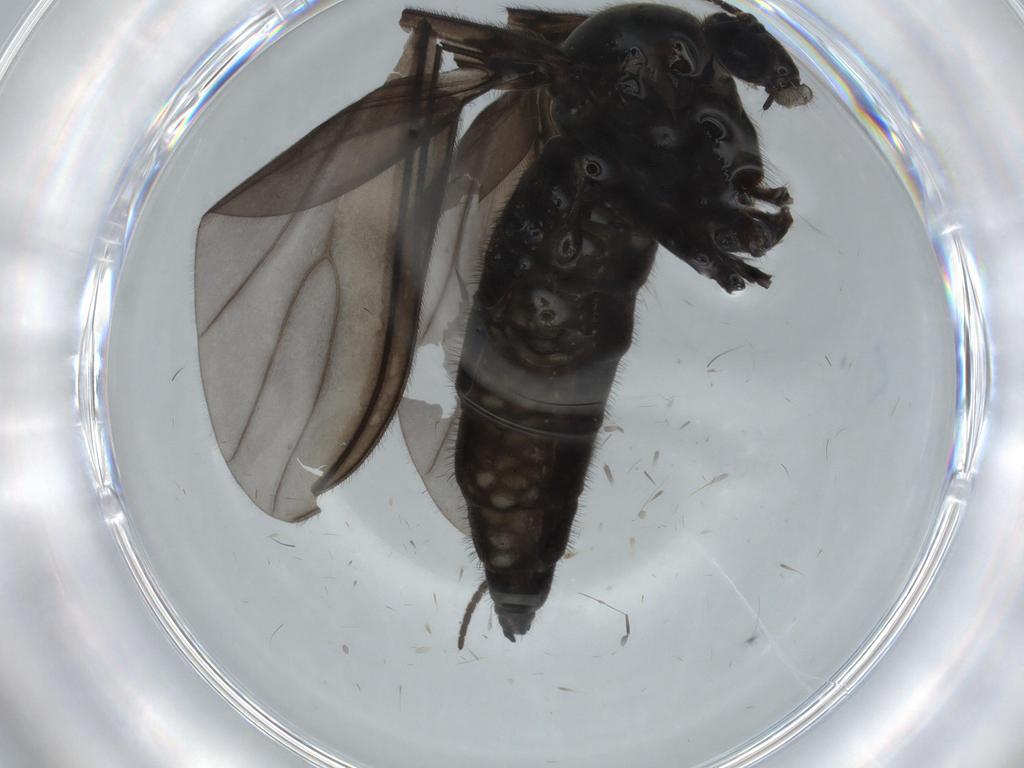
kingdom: Animalia
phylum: Arthropoda
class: Insecta
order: Diptera
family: Sciaridae
